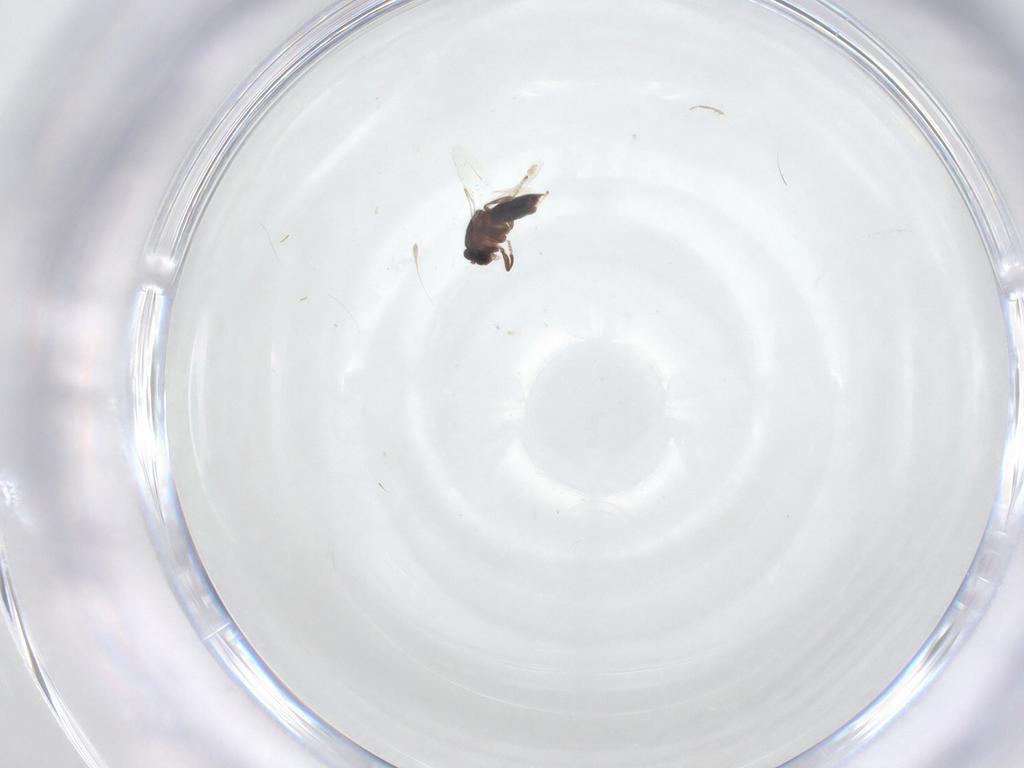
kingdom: Animalia
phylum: Arthropoda
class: Insecta
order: Diptera
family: Scatopsidae
